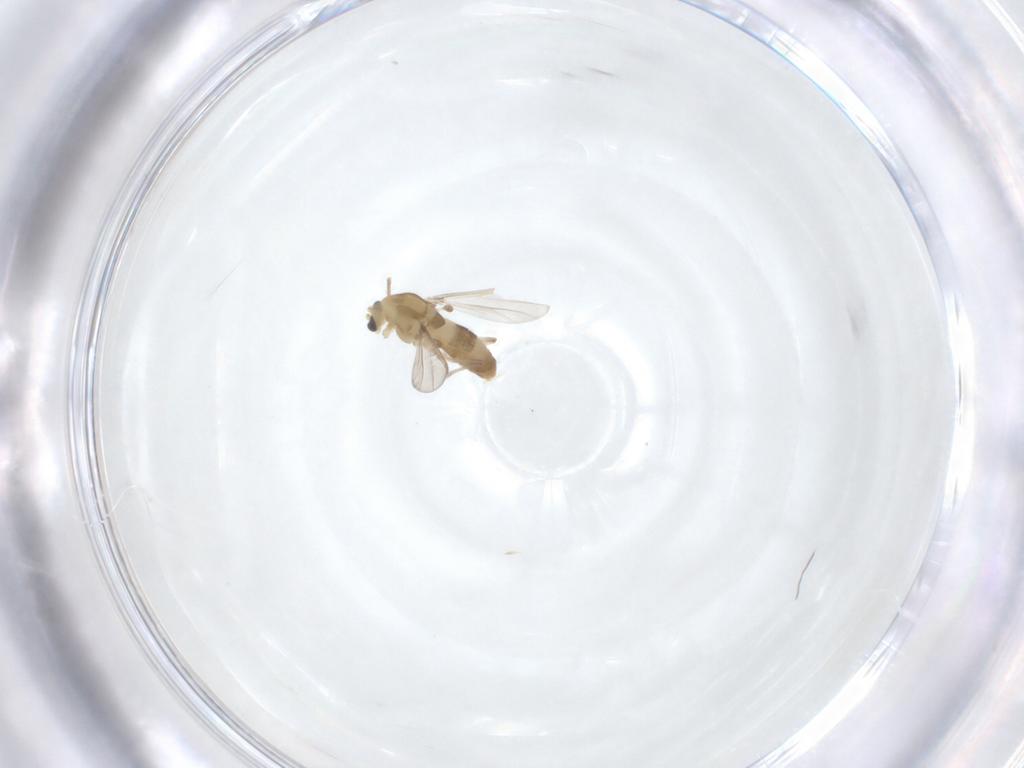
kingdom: Animalia
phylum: Arthropoda
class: Insecta
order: Diptera
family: Chironomidae
